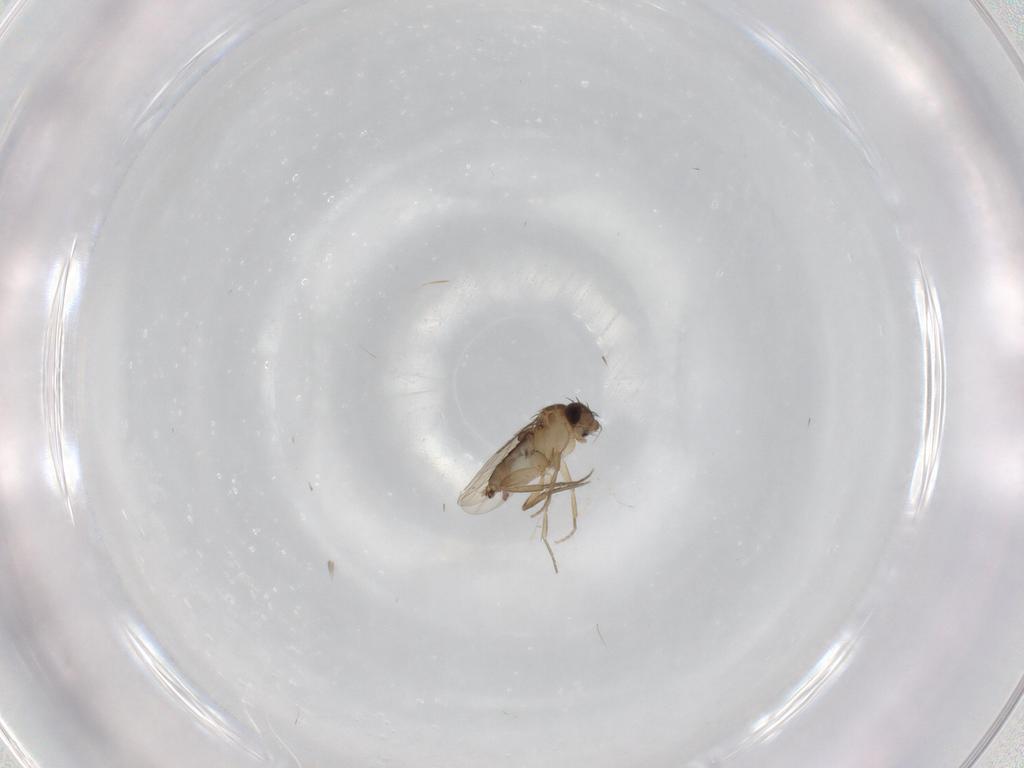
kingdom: Animalia
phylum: Arthropoda
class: Insecta
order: Diptera
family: Phoridae
